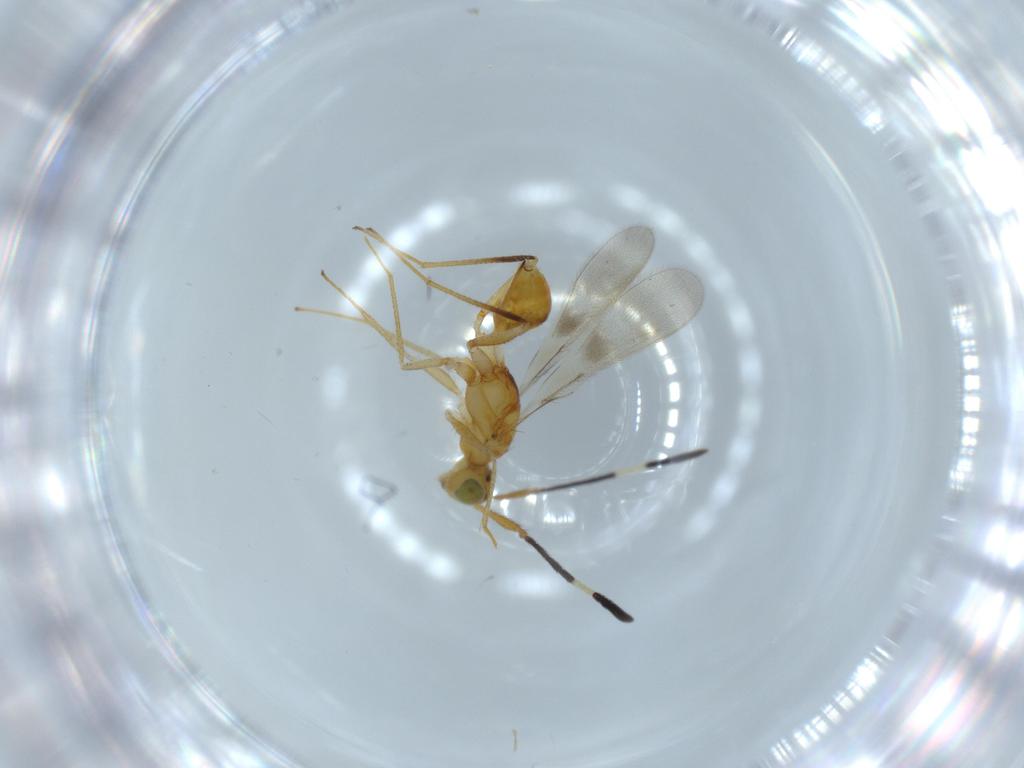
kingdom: Animalia
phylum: Arthropoda
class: Insecta
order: Hymenoptera
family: Mymaridae
